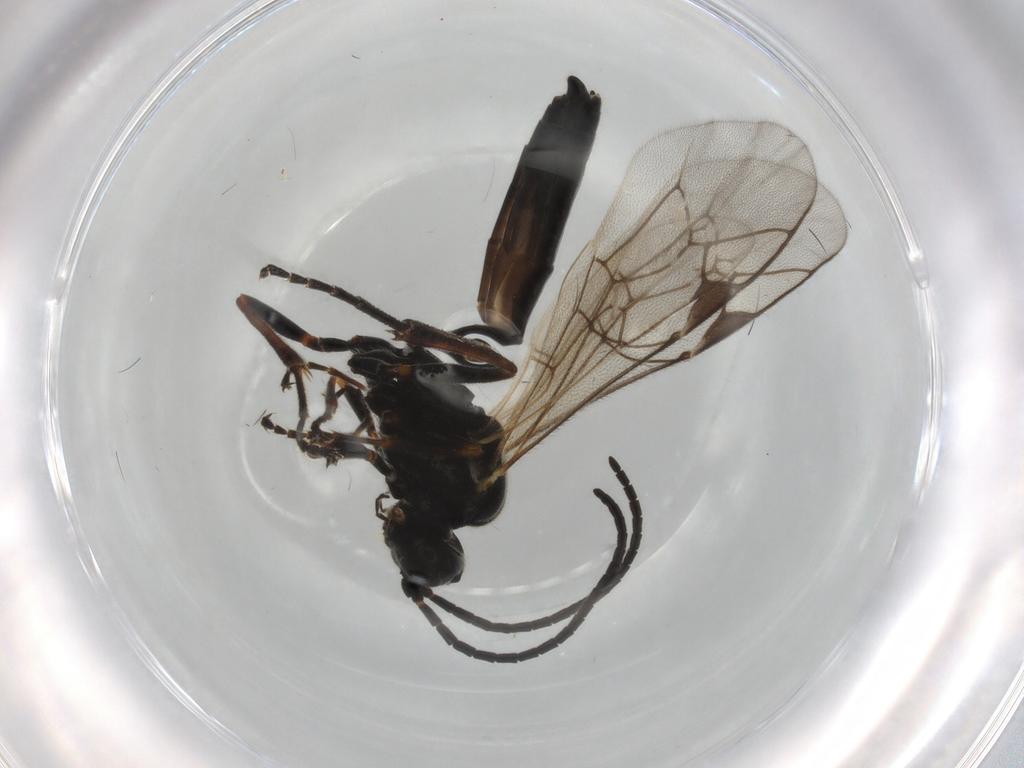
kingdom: Animalia
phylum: Arthropoda
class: Insecta
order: Hymenoptera
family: Ichneumonidae
